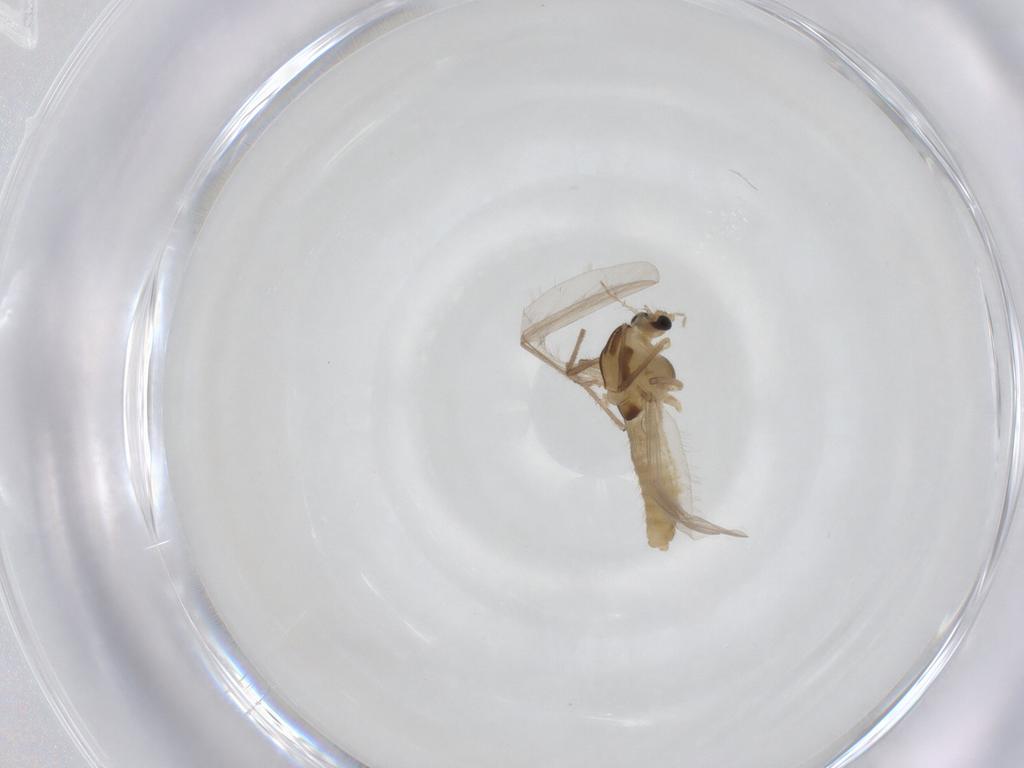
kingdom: Animalia
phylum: Arthropoda
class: Insecta
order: Diptera
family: Chironomidae
